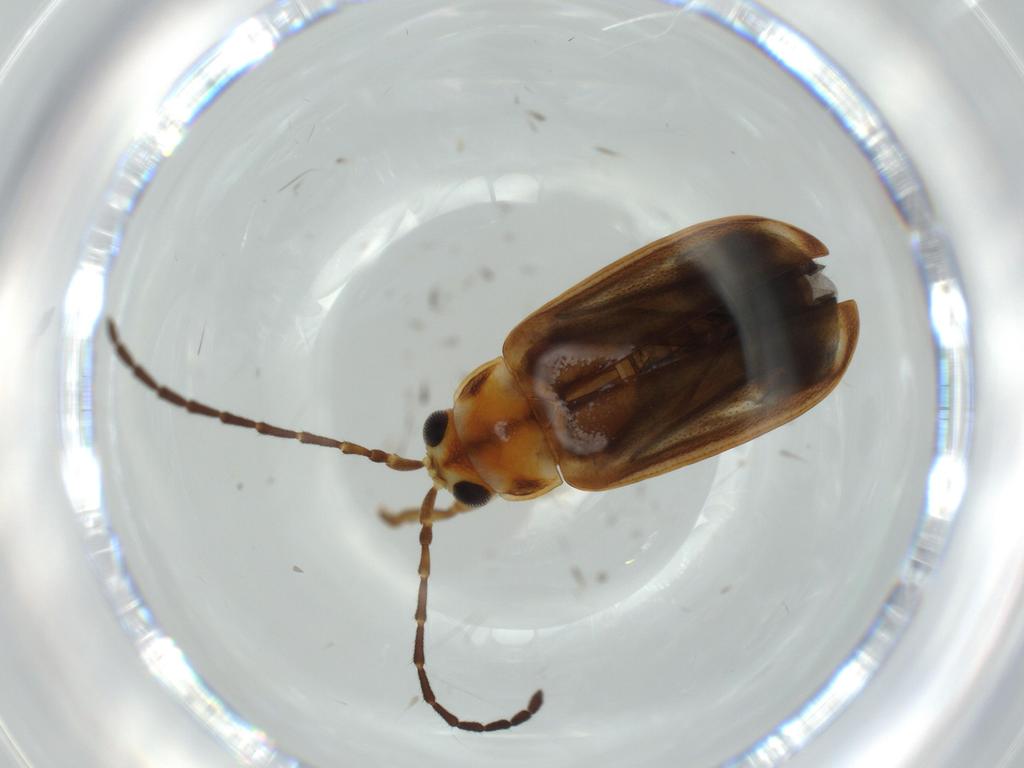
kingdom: Animalia
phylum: Arthropoda
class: Insecta
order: Coleoptera
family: Chrysomelidae
